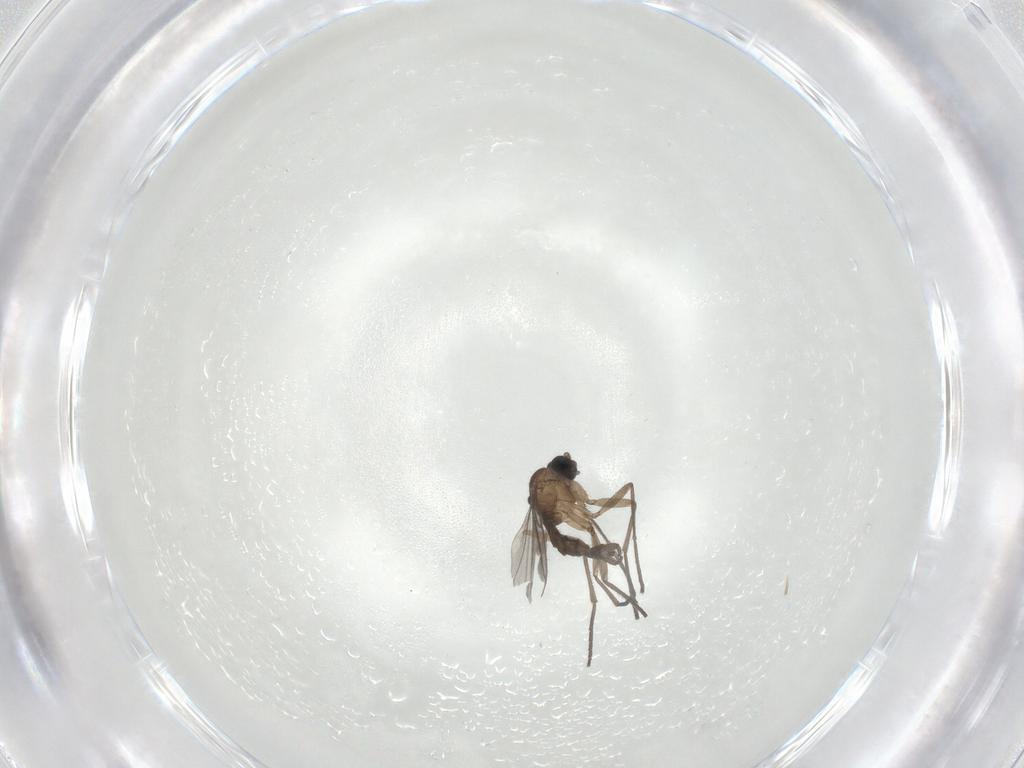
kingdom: Animalia
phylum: Arthropoda
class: Insecta
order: Diptera
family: Sciaridae
